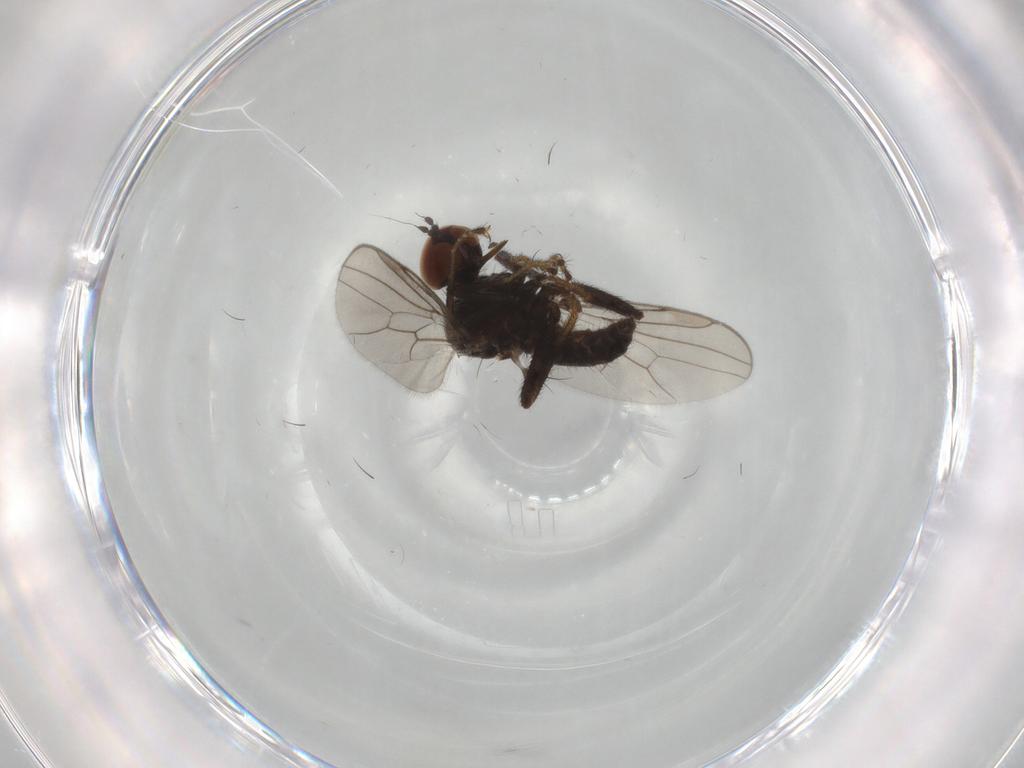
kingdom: Animalia
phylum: Arthropoda
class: Insecta
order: Diptera
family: Hybotidae
